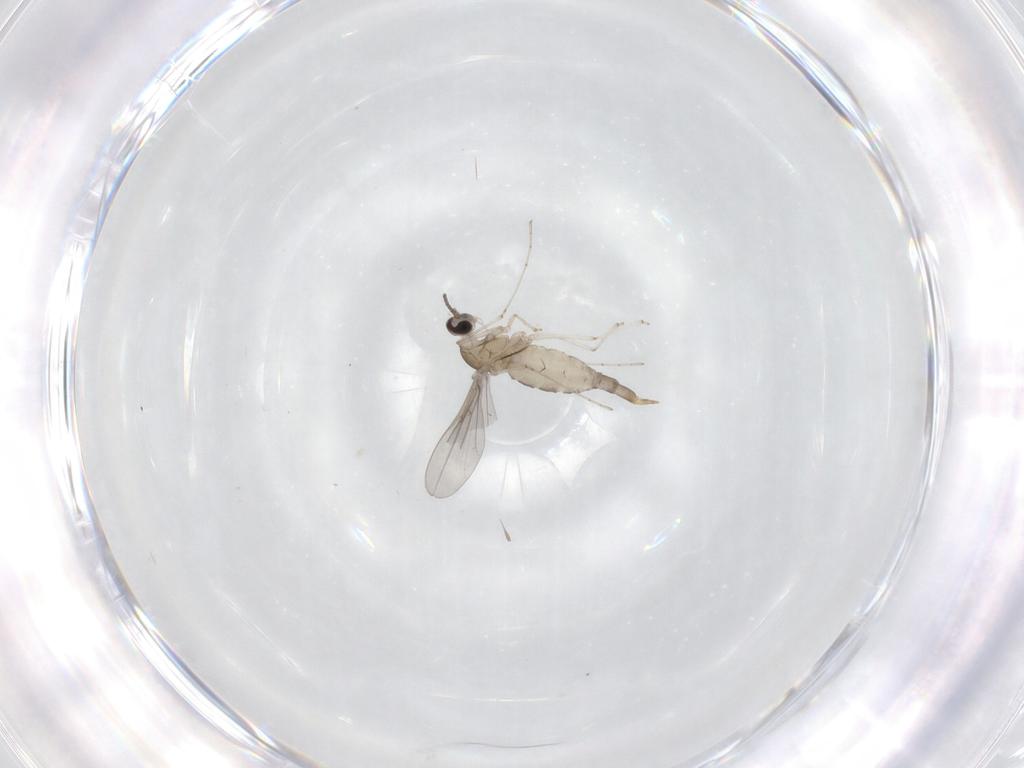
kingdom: Animalia
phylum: Arthropoda
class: Insecta
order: Diptera
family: Cecidomyiidae
